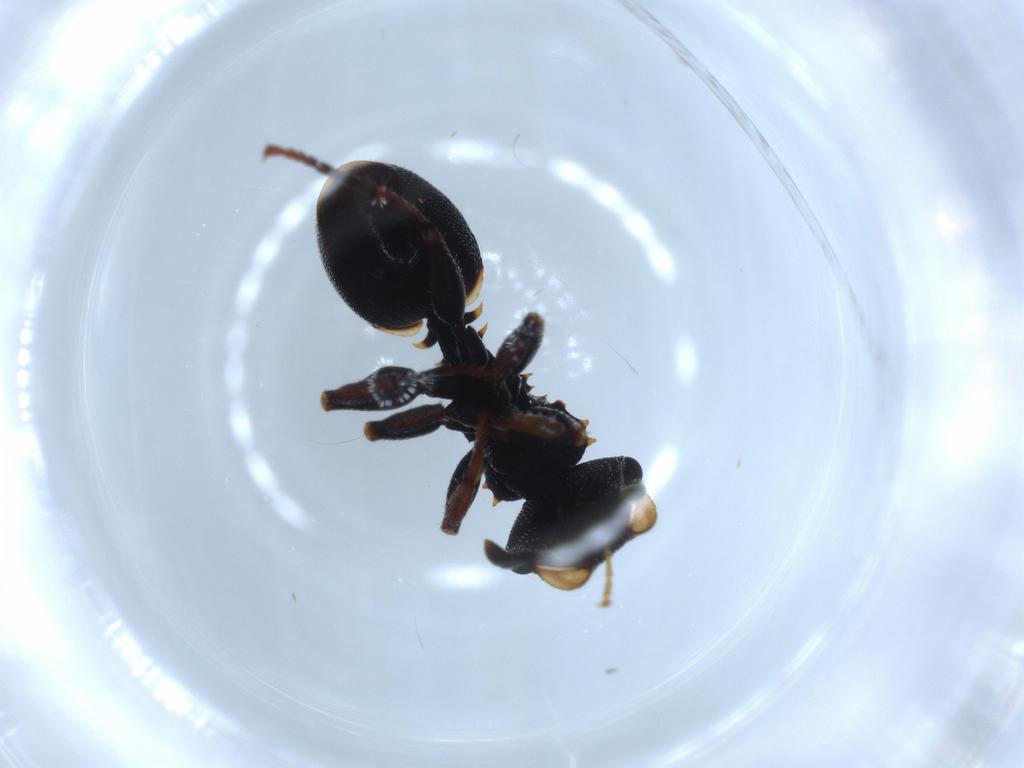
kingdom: Animalia
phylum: Arthropoda
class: Insecta
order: Hymenoptera
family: Formicidae
